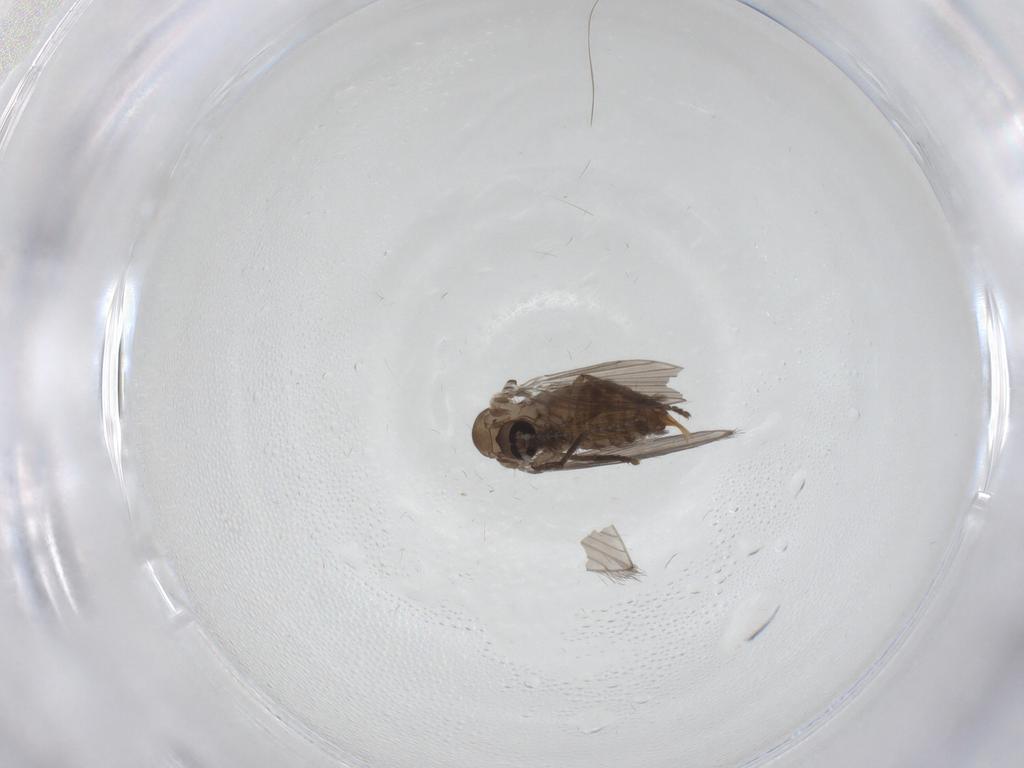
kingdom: Animalia
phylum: Arthropoda
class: Insecta
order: Diptera
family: Psychodidae
